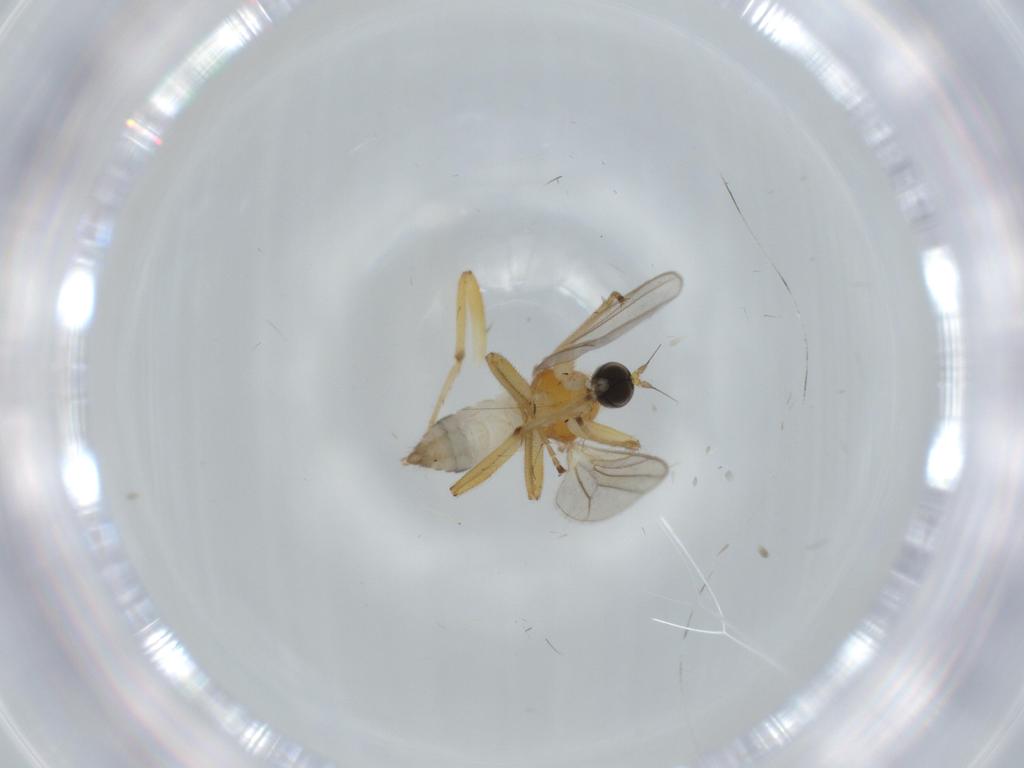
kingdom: Animalia
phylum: Arthropoda
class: Insecta
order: Diptera
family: Hybotidae
